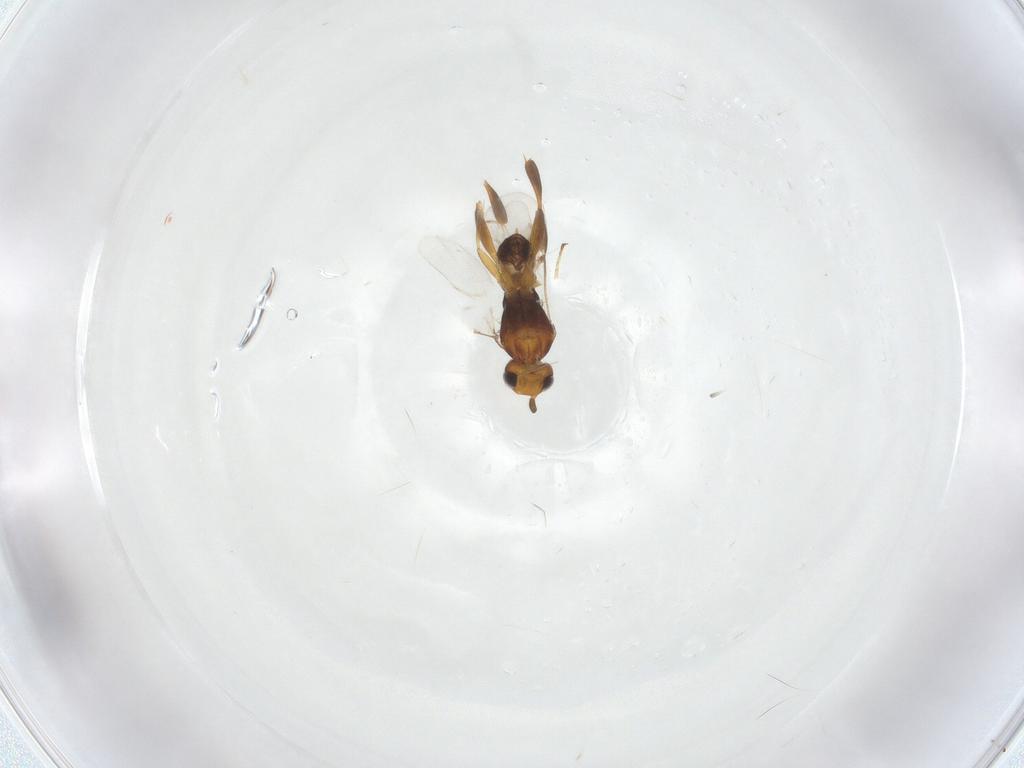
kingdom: Animalia
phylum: Arthropoda
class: Insecta
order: Hymenoptera
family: Braconidae
